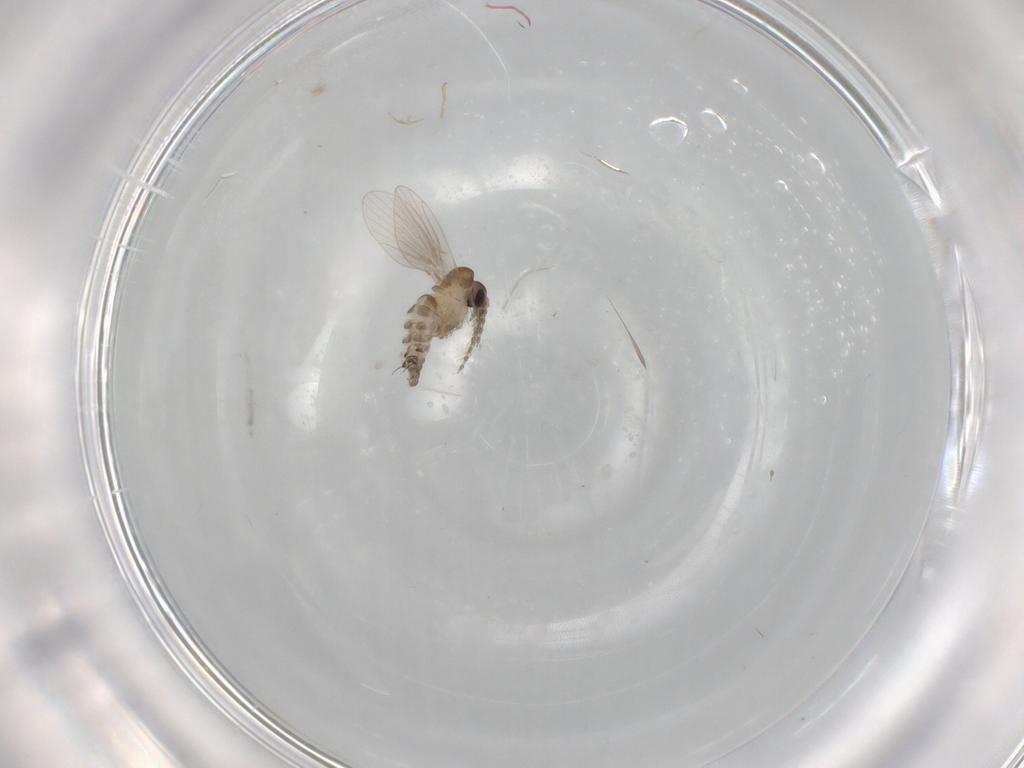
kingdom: Animalia
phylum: Arthropoda
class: Insecta
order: Diptera
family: Psychodidae
